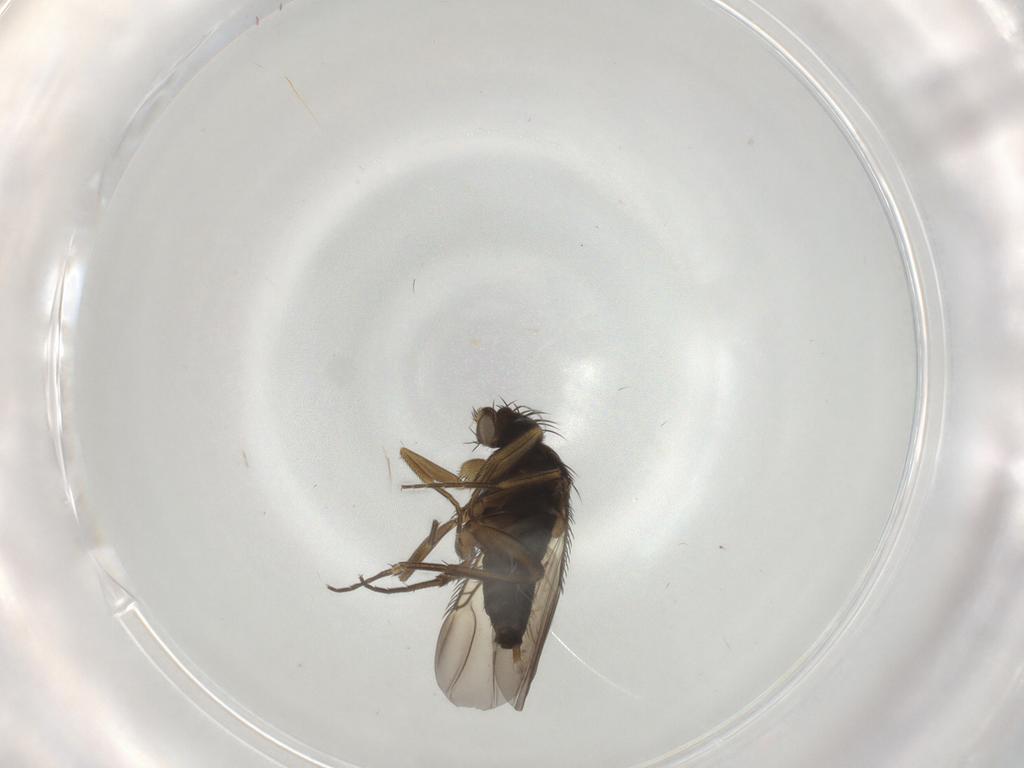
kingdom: Animalia
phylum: Arthropoda
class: Insecta
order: Diptera
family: Phoridae
